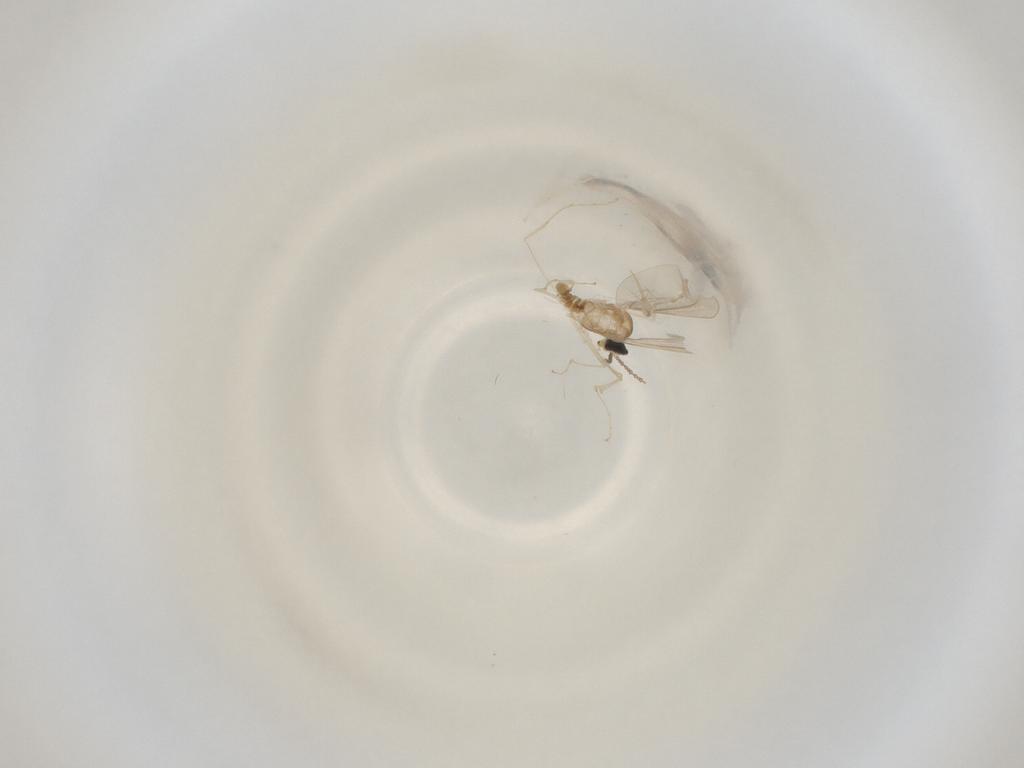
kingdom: Animalia
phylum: Arthropoda
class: Insecta
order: Diptera
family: Cecidomyiidae
